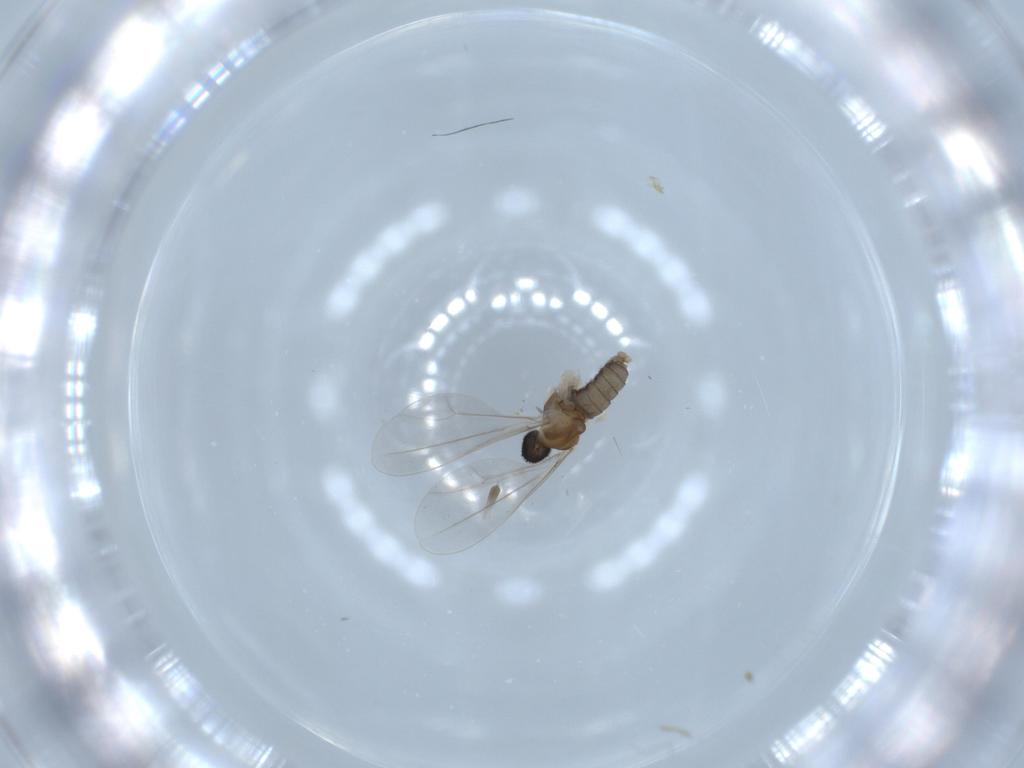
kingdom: Animalia
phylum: Arthropoda
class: Insecta
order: Diptera
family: Cecidomyiidae
